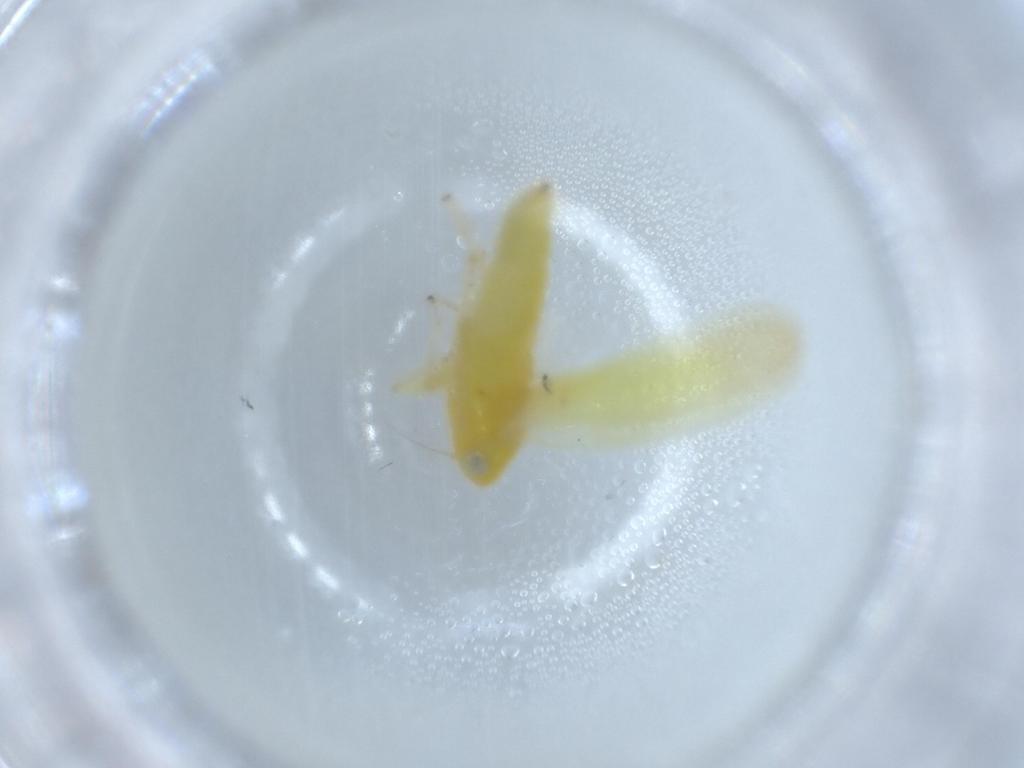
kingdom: Animalia
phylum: Arthropoda
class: Insecta
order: Hemiptera
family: Cicadellidae
